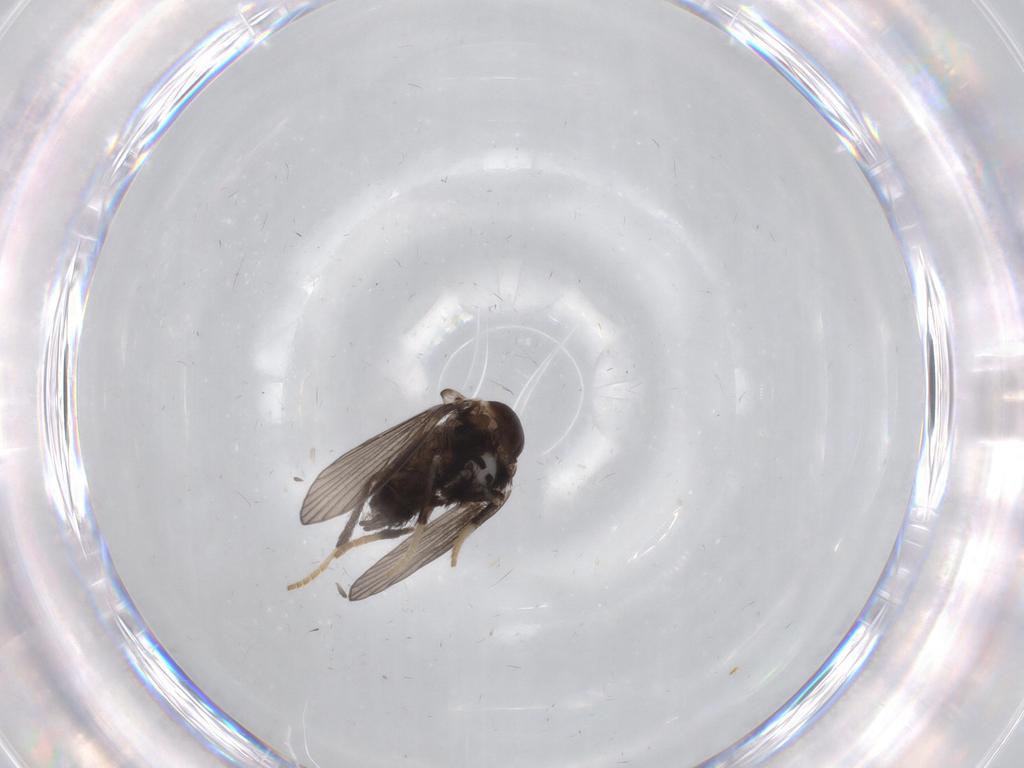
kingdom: Animalia
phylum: Arthropoda
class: Insecta
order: Diptera
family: Psychodidae
